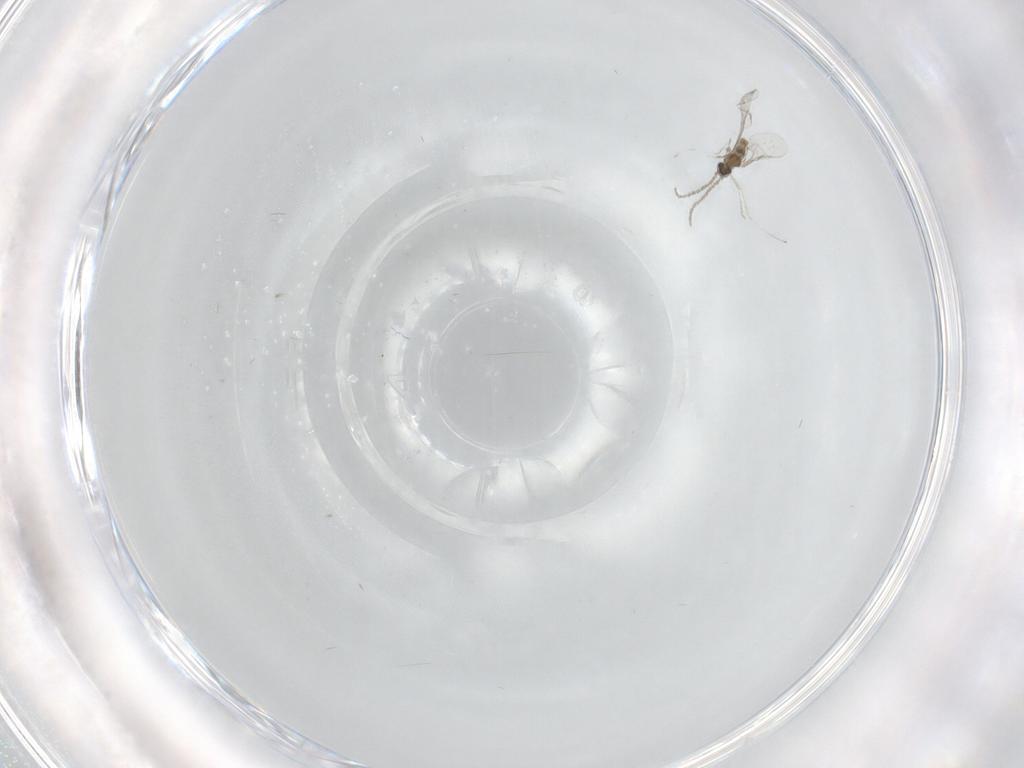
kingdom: Animalia
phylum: Arthropoda
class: Insecta
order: Diptera
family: Cecidomyiidae
